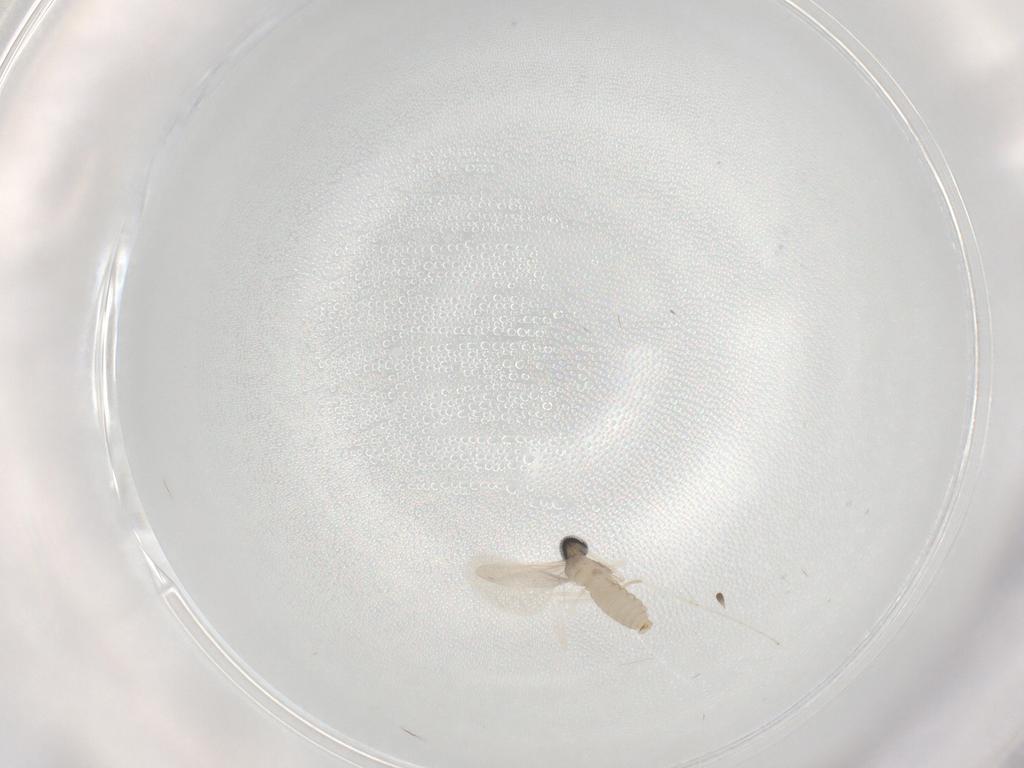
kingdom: Animalia
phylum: Arthropoda
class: Insecta
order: Diptera
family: Cecidomyiidae
